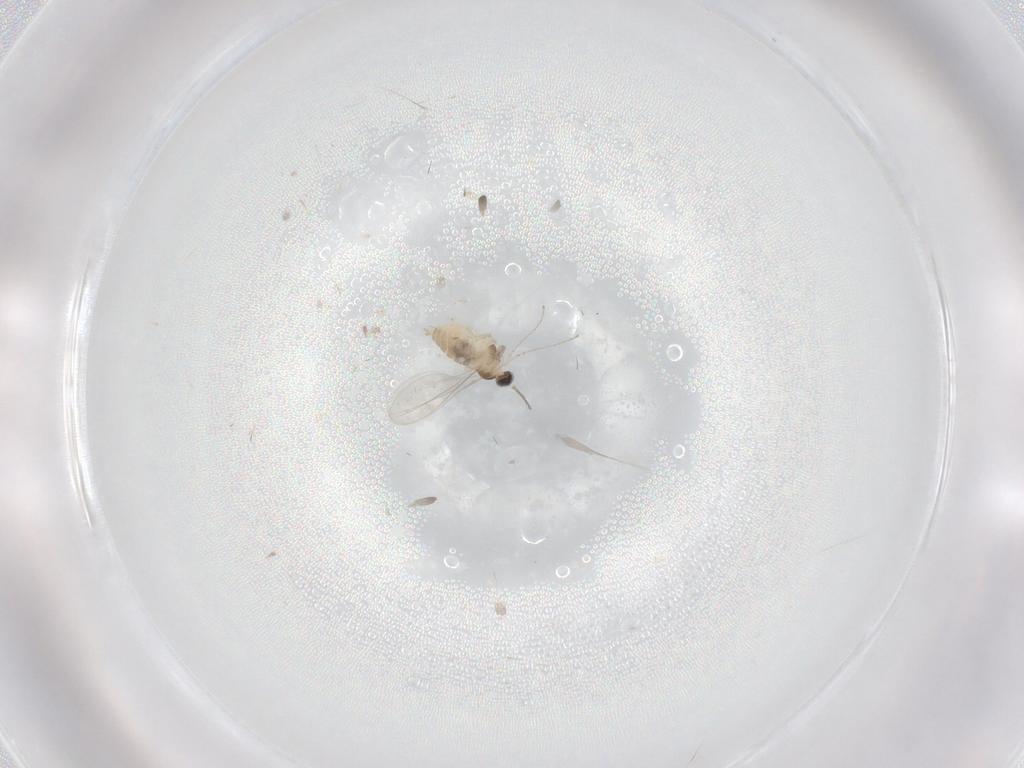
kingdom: Animalia
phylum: Arthropoda
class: Insecta
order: Diptera
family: Cecidomyiidae
